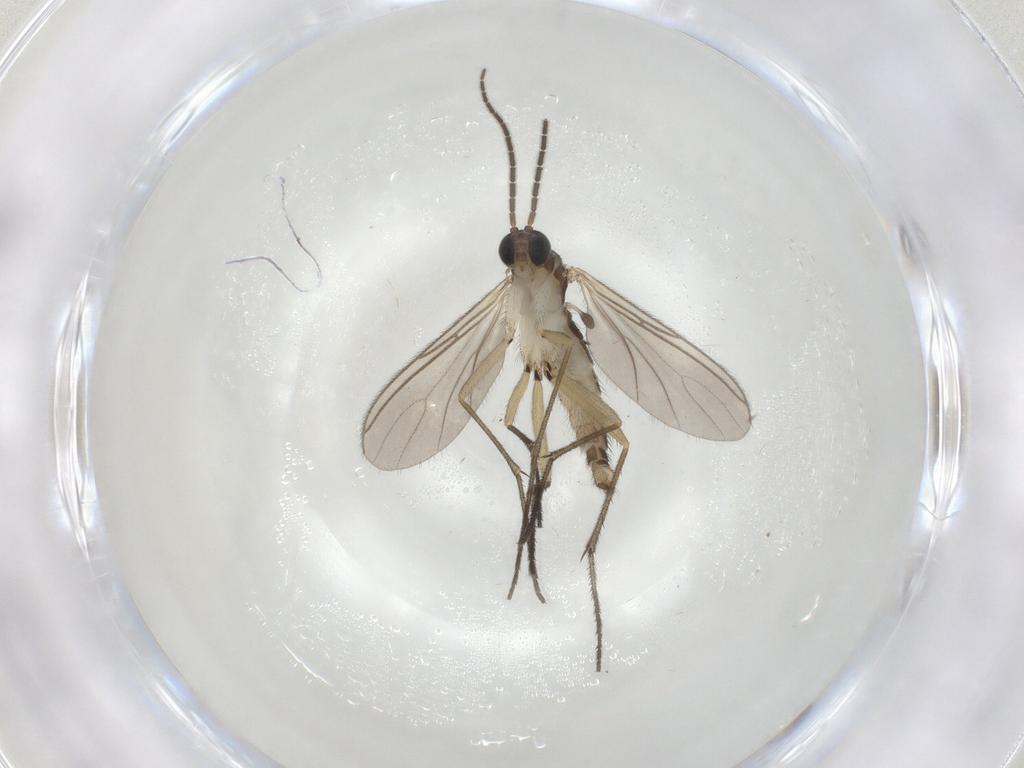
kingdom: Animalia
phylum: Arthropoda
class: Insecta
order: Diptera
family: Sciaridae
